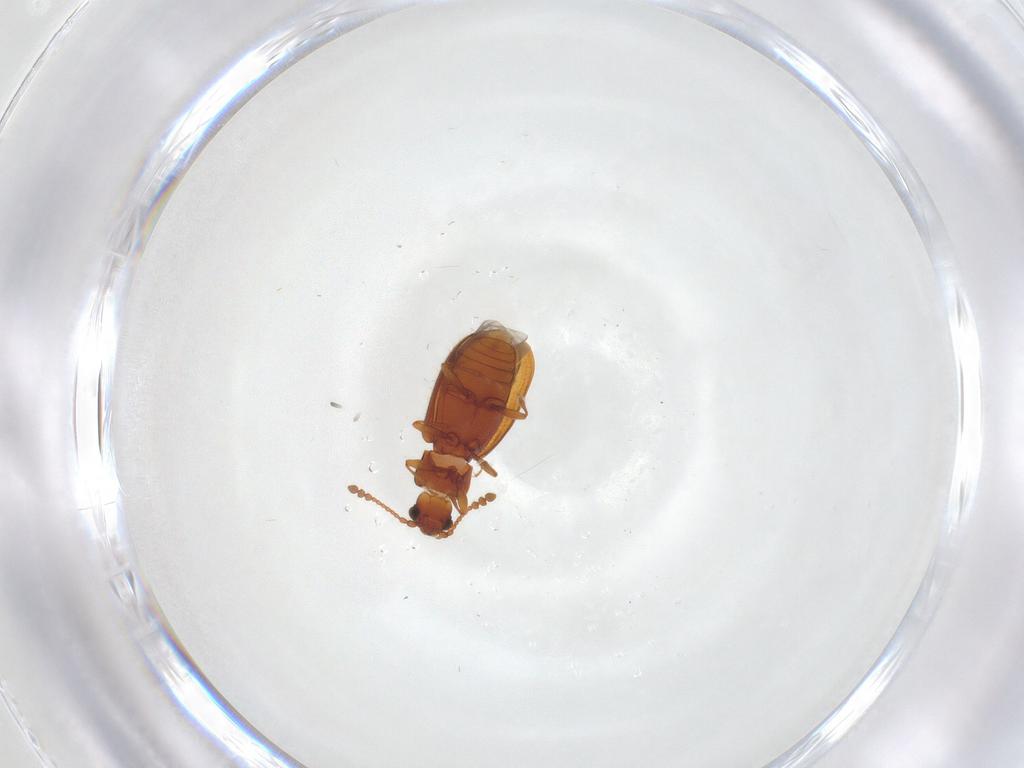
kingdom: Animalia
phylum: Arthropoda
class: Insecta
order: Coleoptera
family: Cryptophagidae
